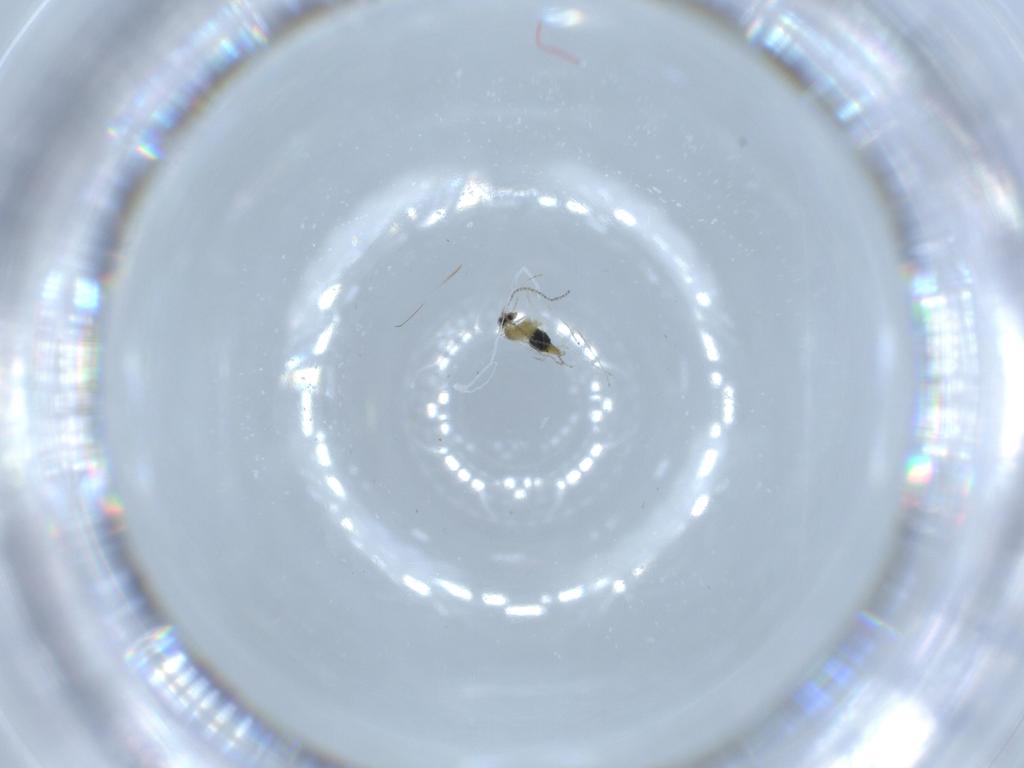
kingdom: Animalia
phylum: Arthropoda
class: Insecta
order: Diptera
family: Cecidomyiidae
